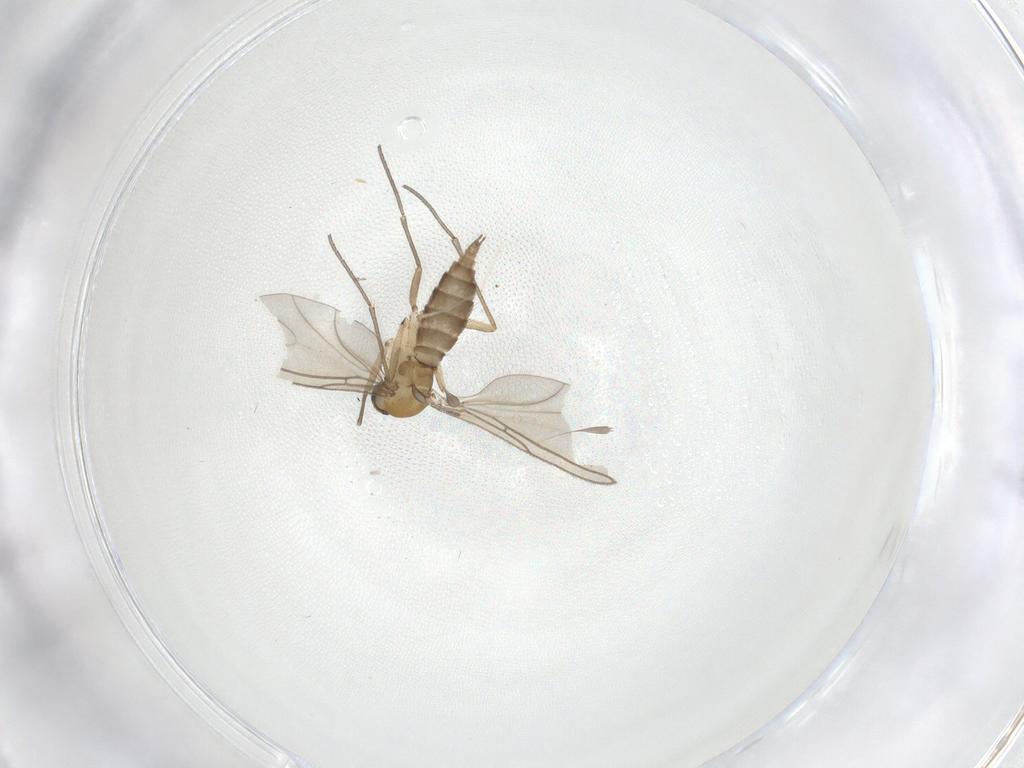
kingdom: Animalia
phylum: Arthropoda
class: Insecta
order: Diptera
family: Sciaridae
